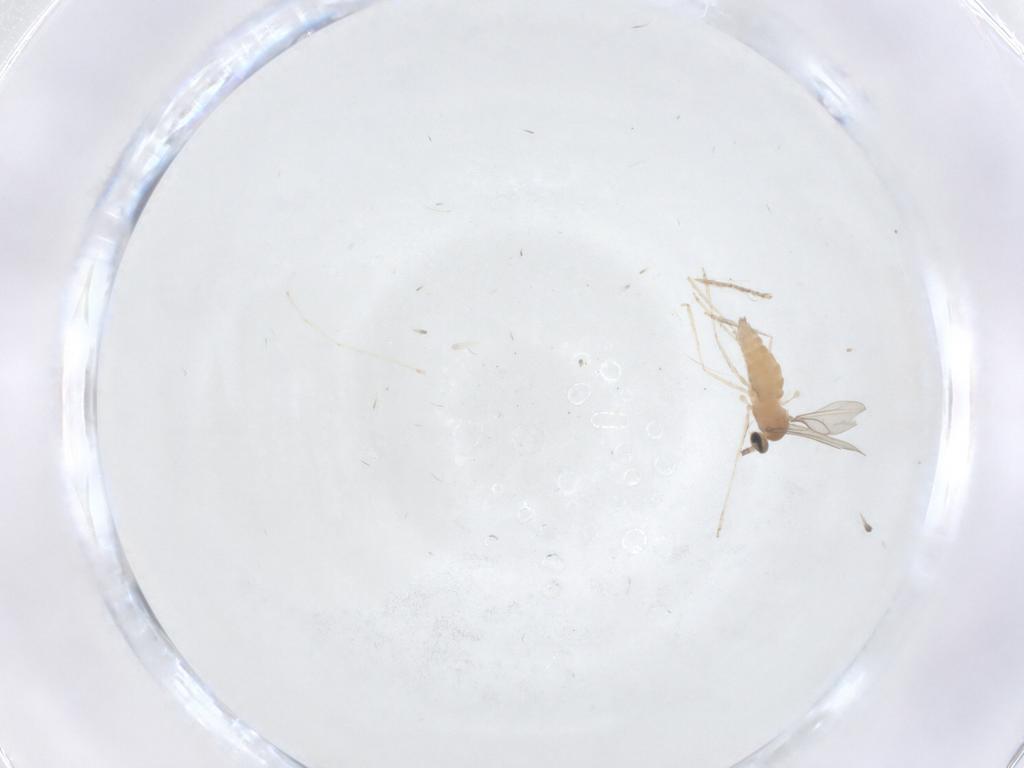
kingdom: Animalia
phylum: Arthropoda
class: Insecta
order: Diptera
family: Cecidomyiidae
